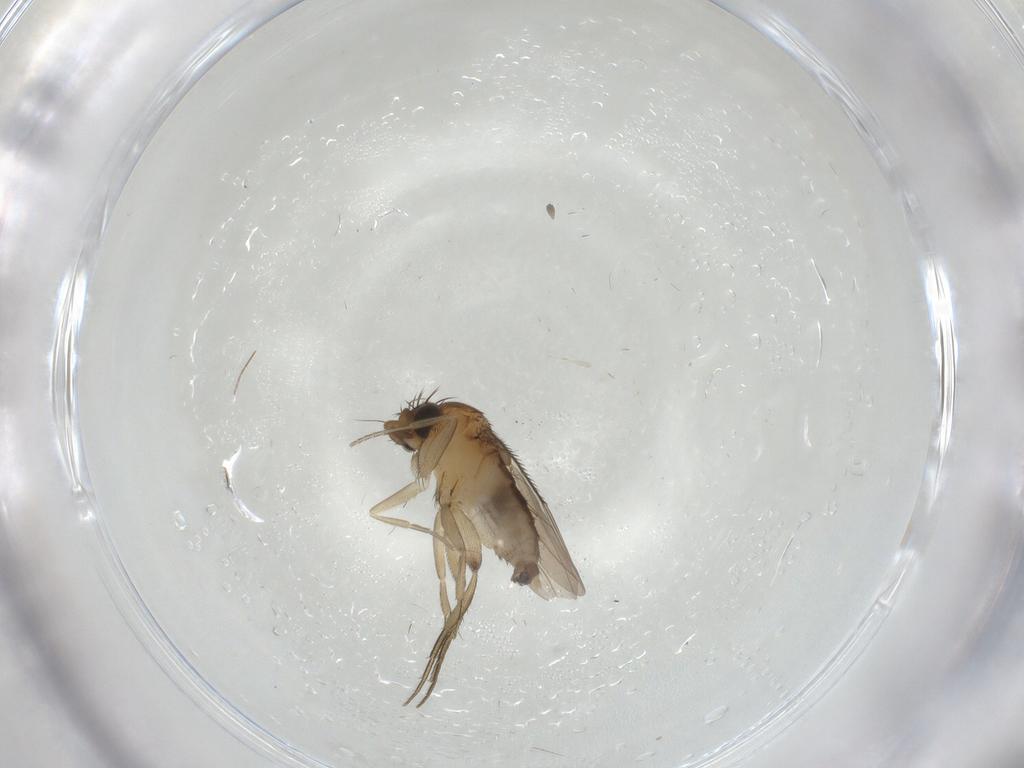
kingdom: Animalia
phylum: Arthropoda
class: Insecta
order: Diptera
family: Phoridae
